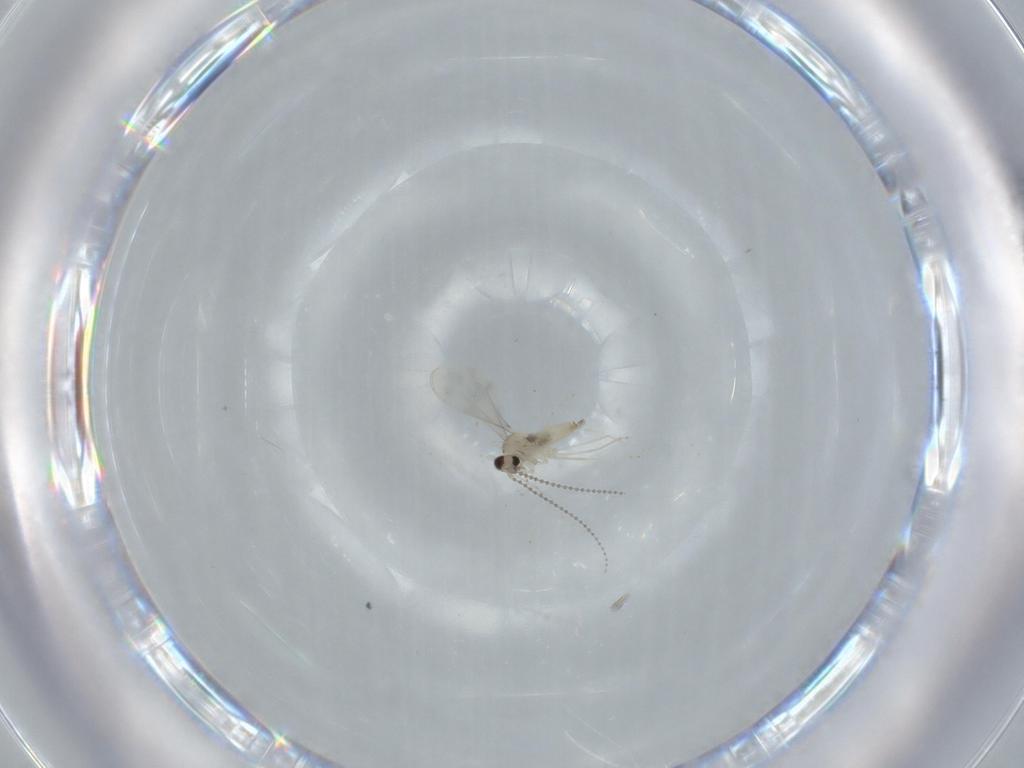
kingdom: Animalia
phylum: Arthropoda
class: Insecta
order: Diptera
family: Cecidomyiidae
